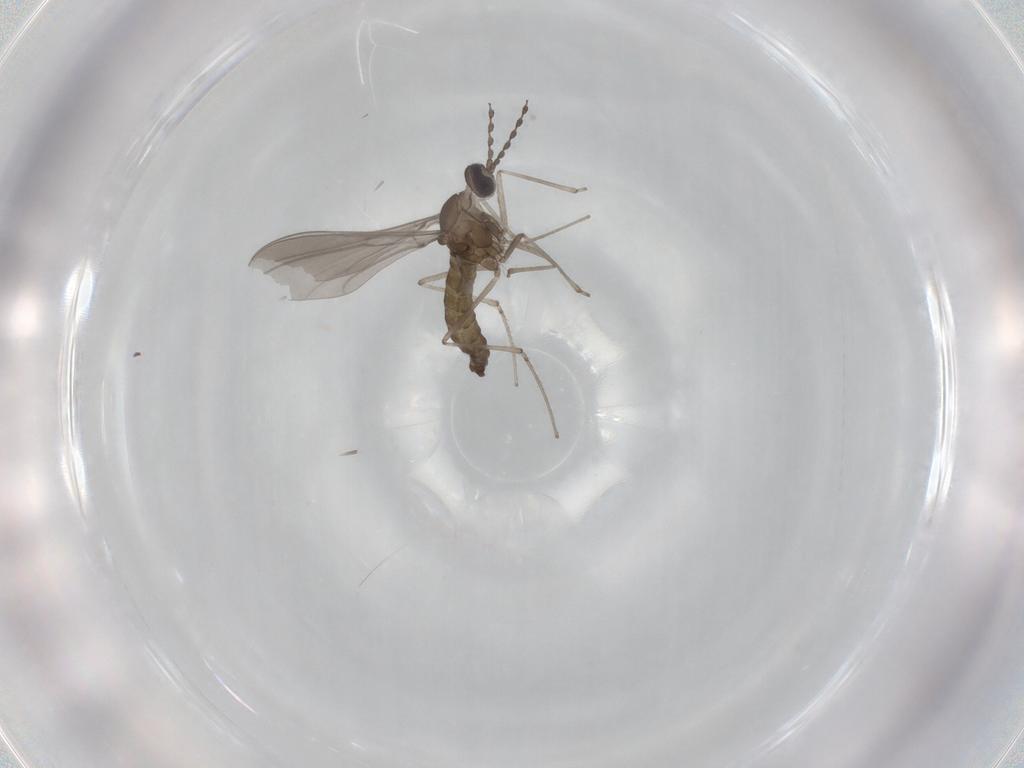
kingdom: Animalia
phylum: Arthropoda
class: Insecta
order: Diptera
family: Cecidomyiidae
